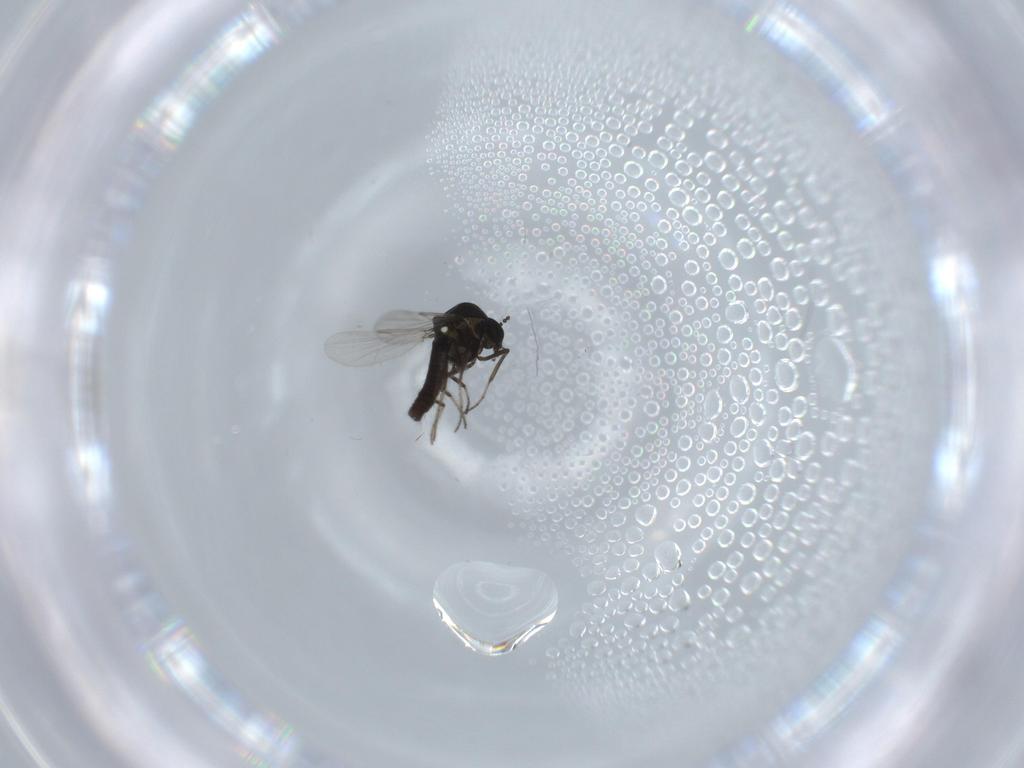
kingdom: Animalia
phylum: Arthropoda
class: Insecta
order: Diptera
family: Ceratopogonidae
